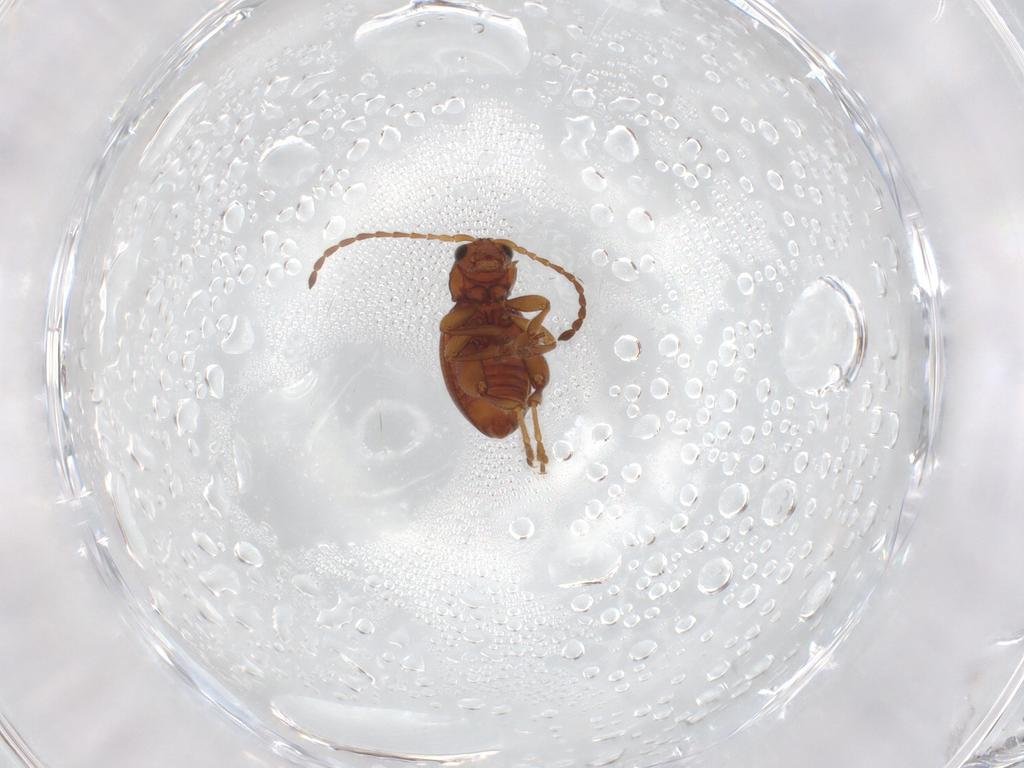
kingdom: Animalia
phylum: Arthropoda
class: Insecta
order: Coleoptera
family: Chrysomelidae
